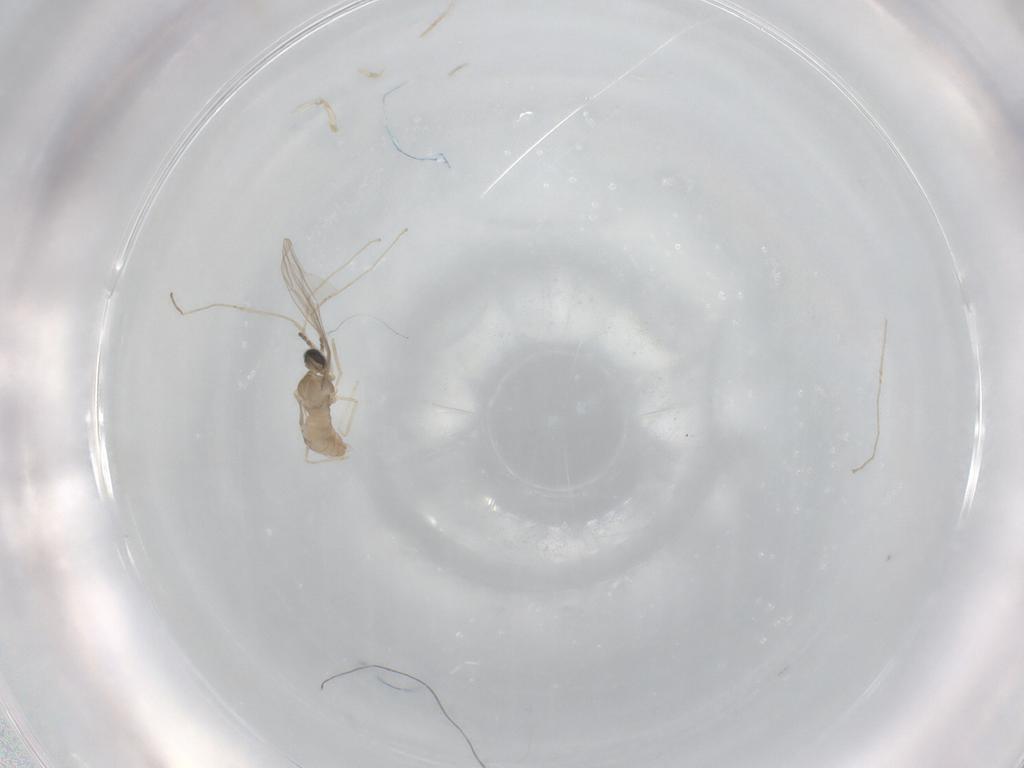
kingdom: Animalia
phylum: Arthropoda
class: Insecta
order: Diptera
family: Cecidomyiidae
